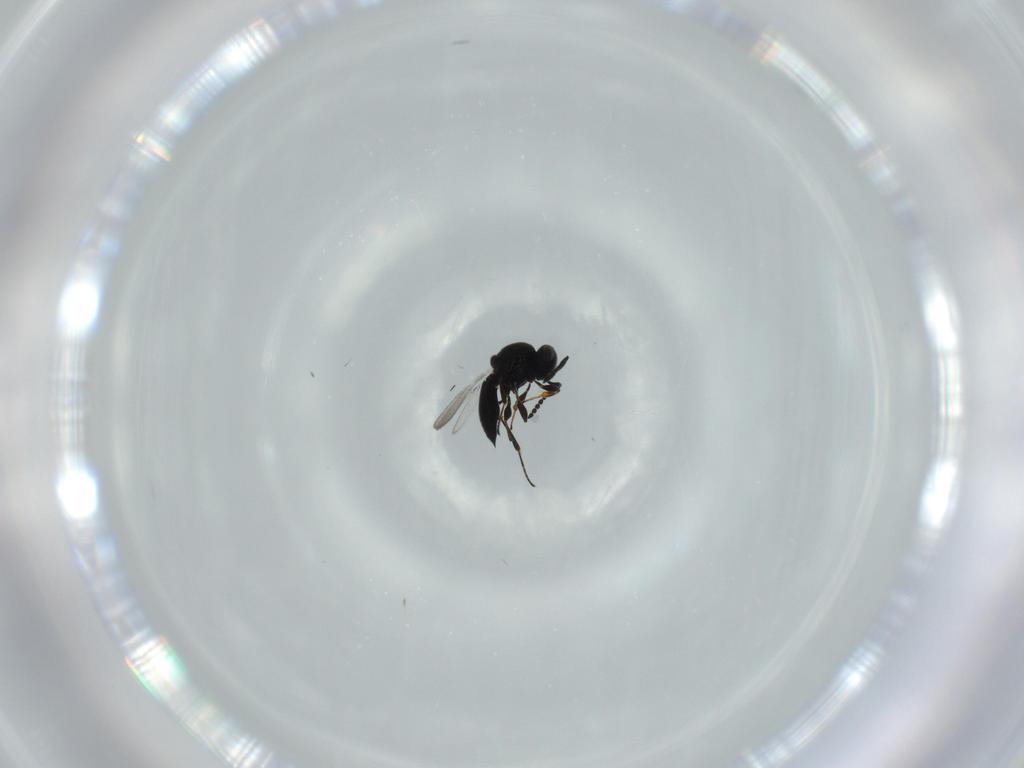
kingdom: Animalia
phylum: Arthropoda
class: Insecta
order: Hymenoptera
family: Platygastridae
